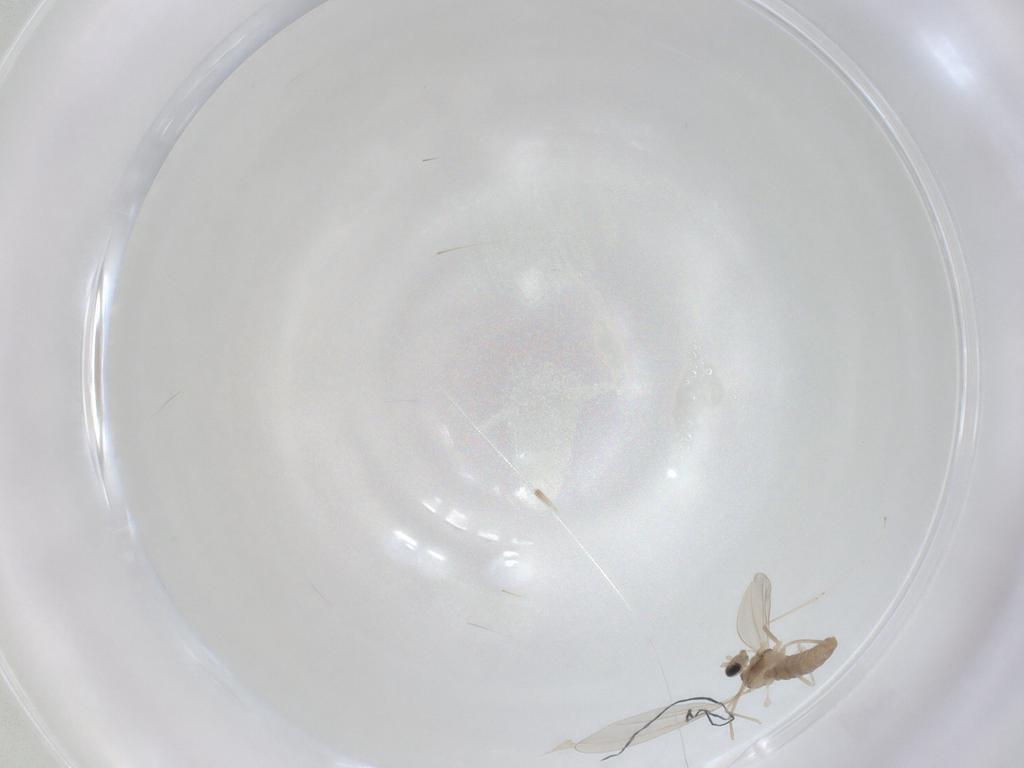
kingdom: Animalia
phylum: Arthropoda
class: Insecta
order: Diptera
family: Cecidomyiidae
